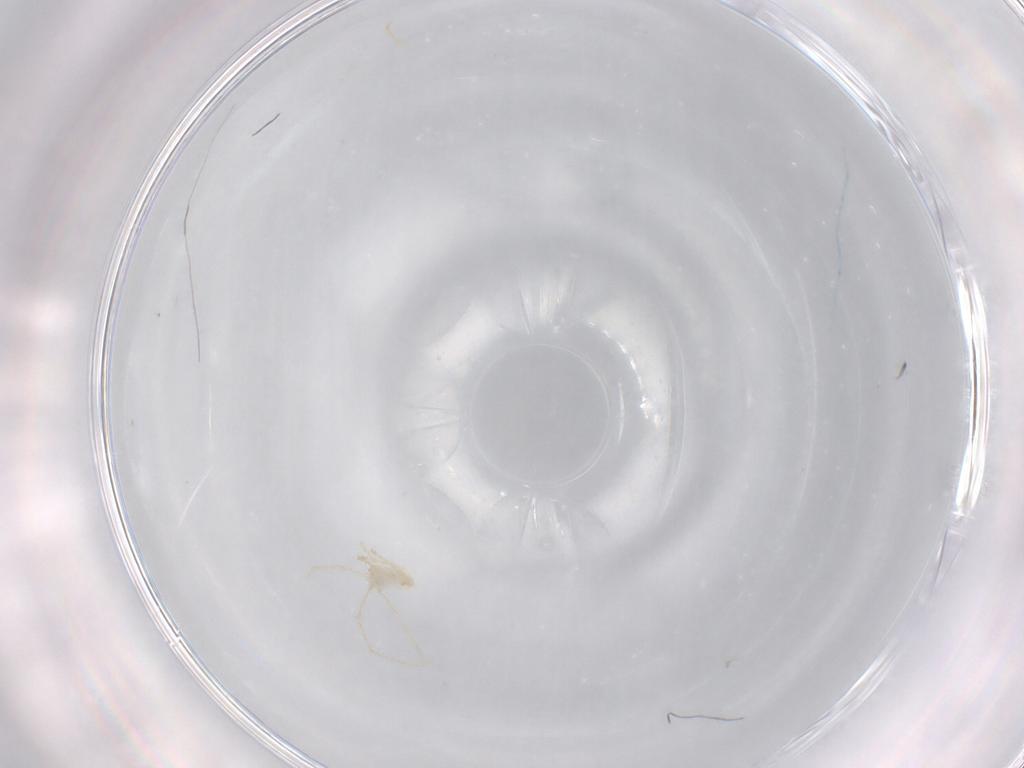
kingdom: Animalia
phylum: Arthropoda
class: Arachnida
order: Trombidiformes
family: Erythraeidae
